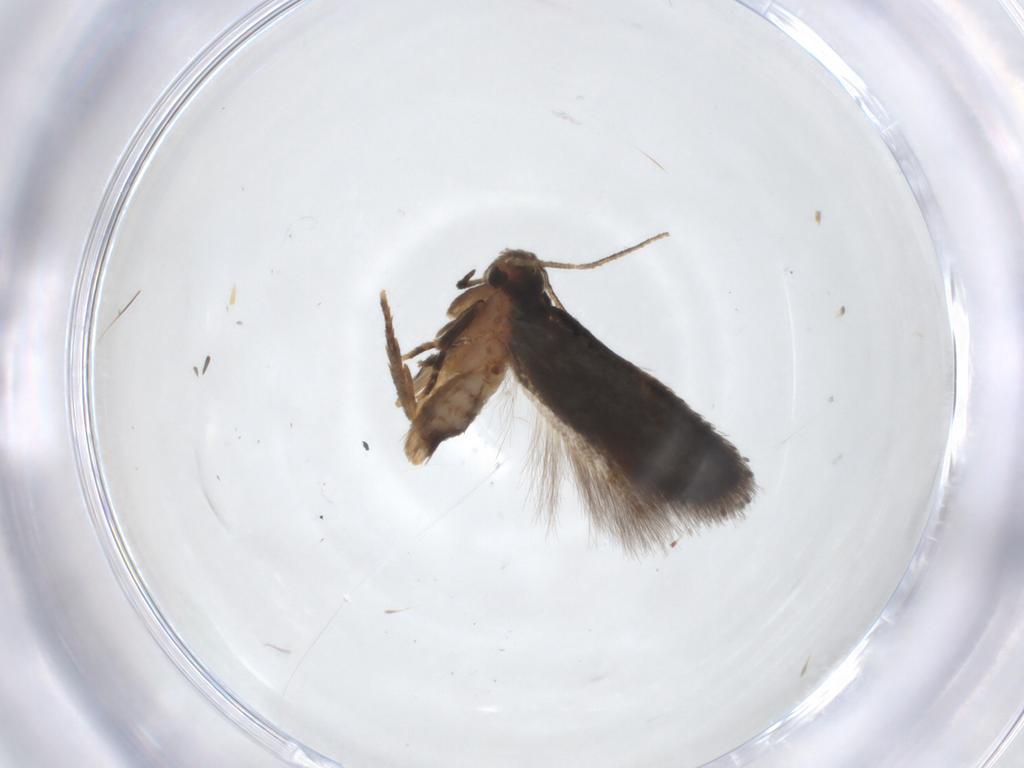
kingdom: Animalia
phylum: Arthropoda
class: Insecta
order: Lepidoptera
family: Elachistidae
